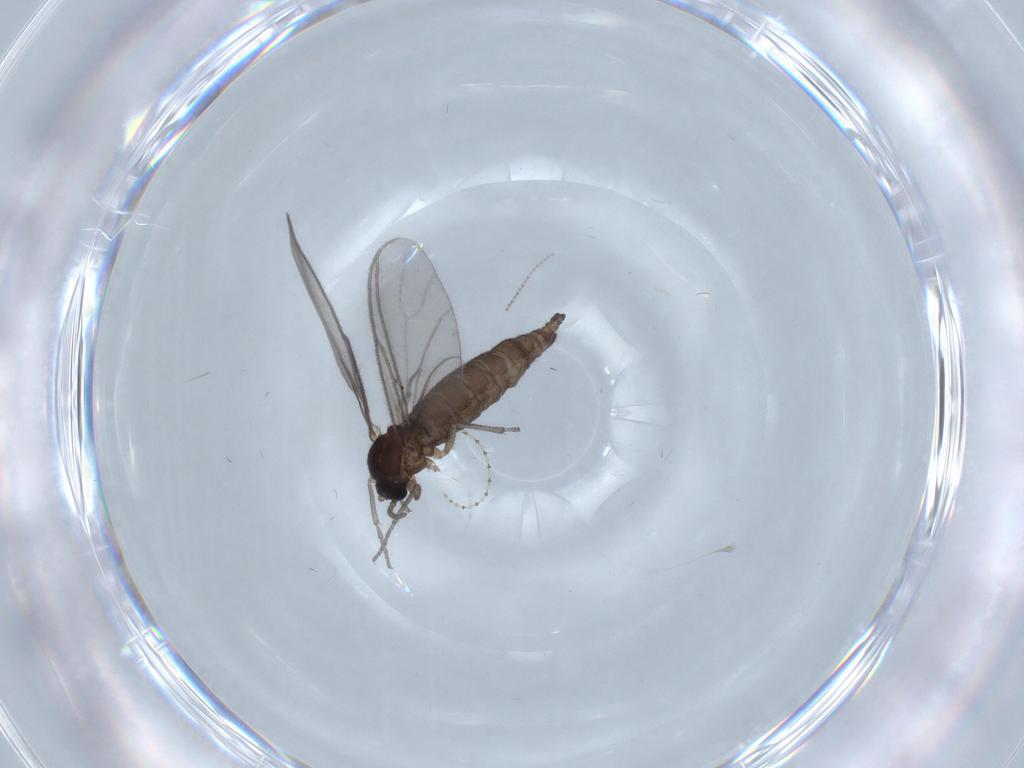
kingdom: Animalia
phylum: Arthropoda
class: Insecta
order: Diptera
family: Sciaridae
